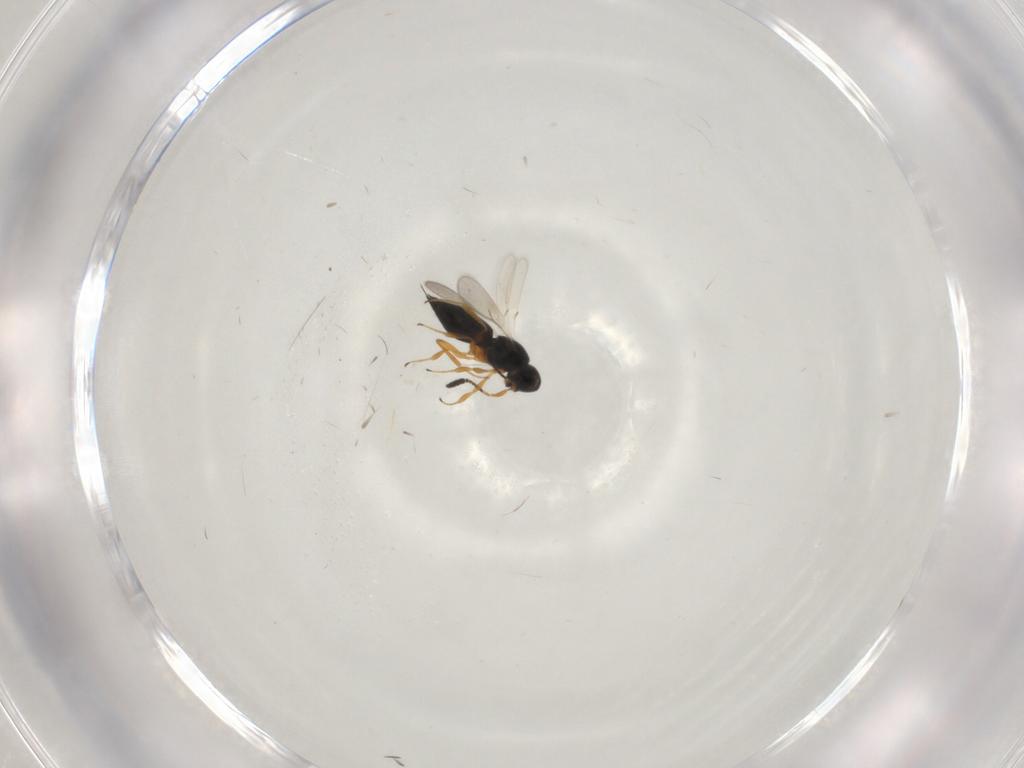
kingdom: Animalia
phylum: Arthropoda
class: Insecta
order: Hymenoptera
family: Scelionidae
